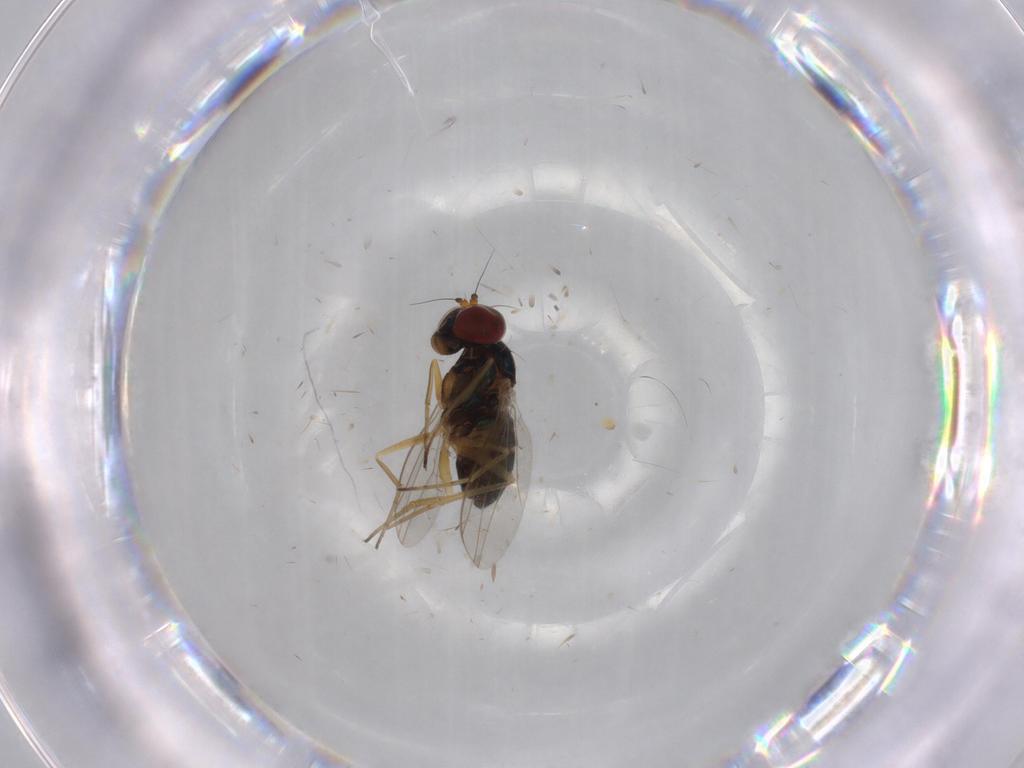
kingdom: Animalia
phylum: Arthropoda
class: Insecta
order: Diptera
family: Dolichopodidae
